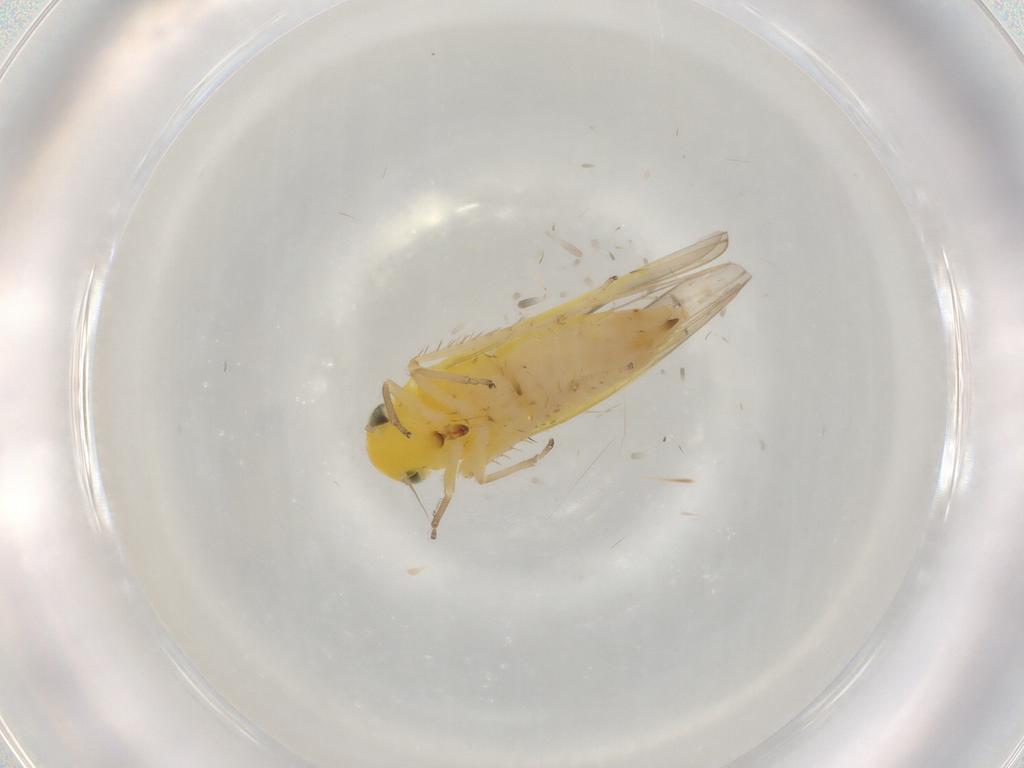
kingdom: Animalia
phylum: Arthropoda
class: Insecta
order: Hemiptera
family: Cicadellidae
